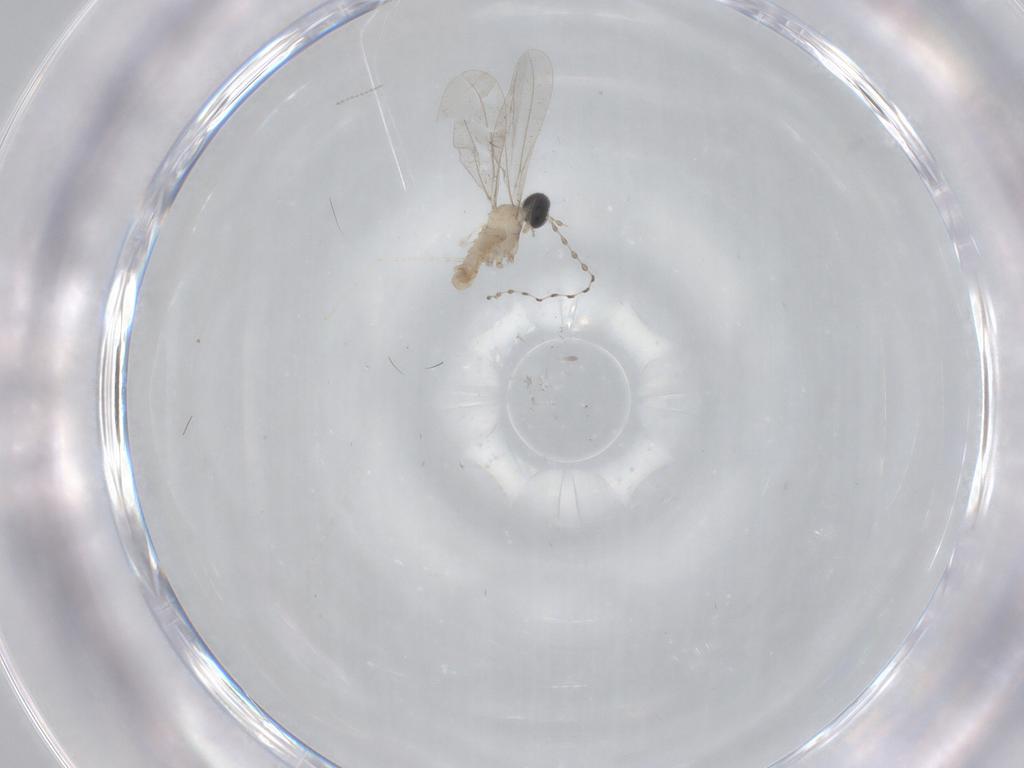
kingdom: Animalia
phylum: Arthropoda
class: Insecta
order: Diptera
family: Cecidomyiidae
